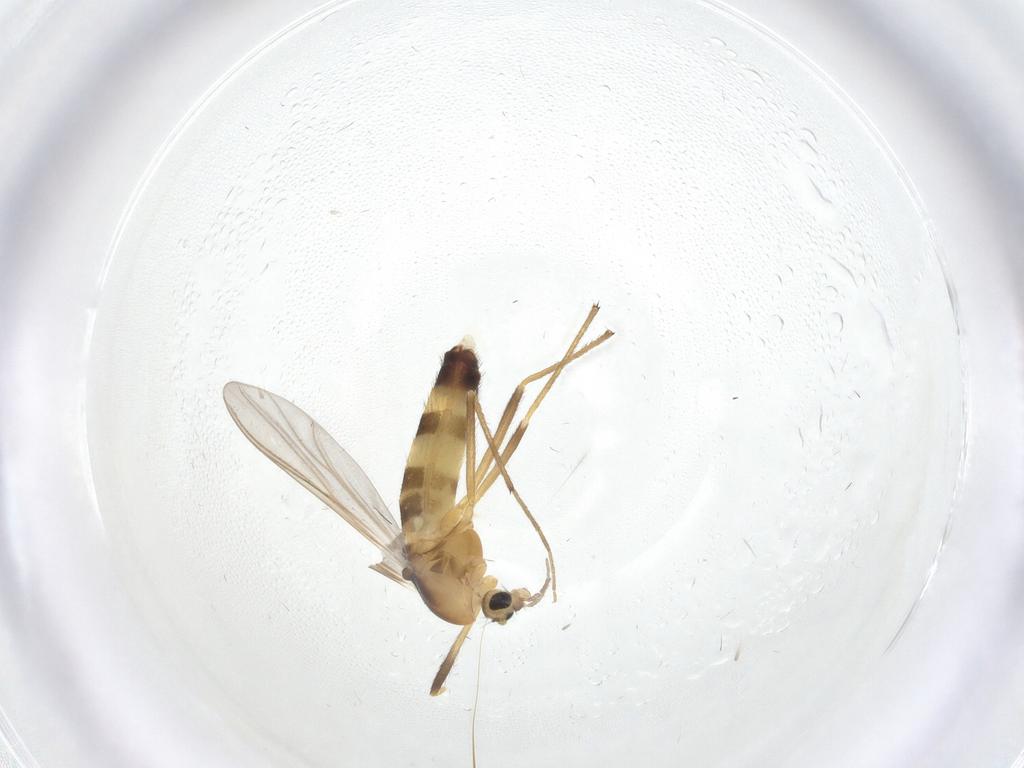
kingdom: Animalia
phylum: Arthropoda
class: Insecta
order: Diptera
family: Chironomidae
